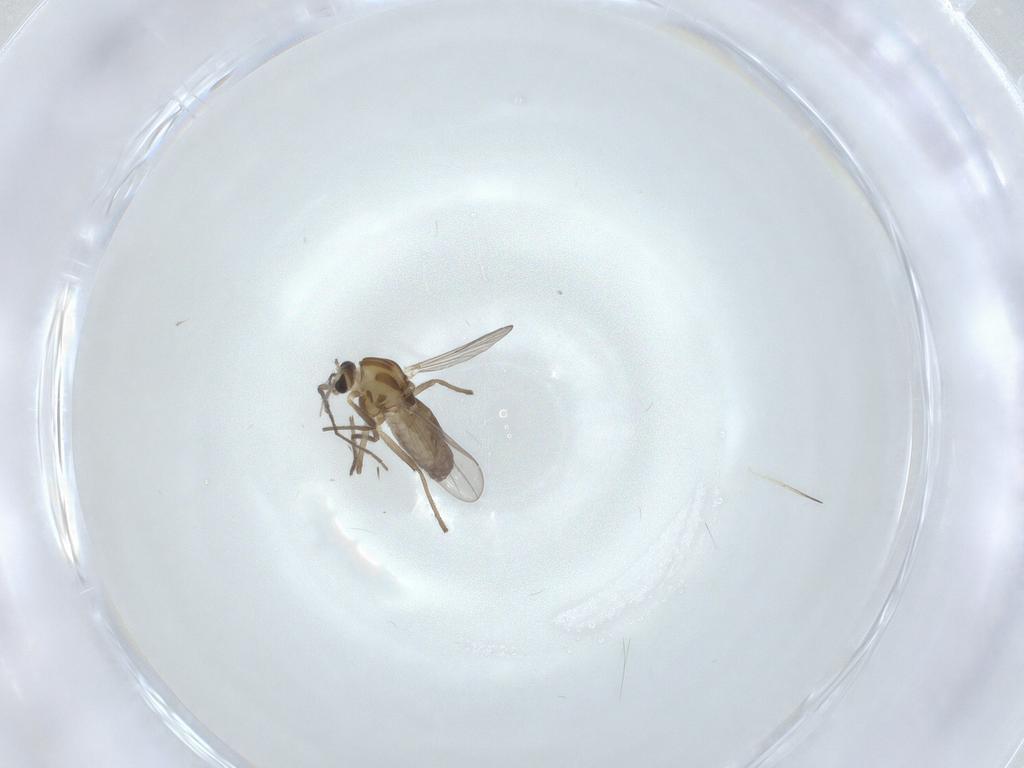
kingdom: Animalia
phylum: Arthropoda
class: Insecta
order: Diptera
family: Chironomidae
